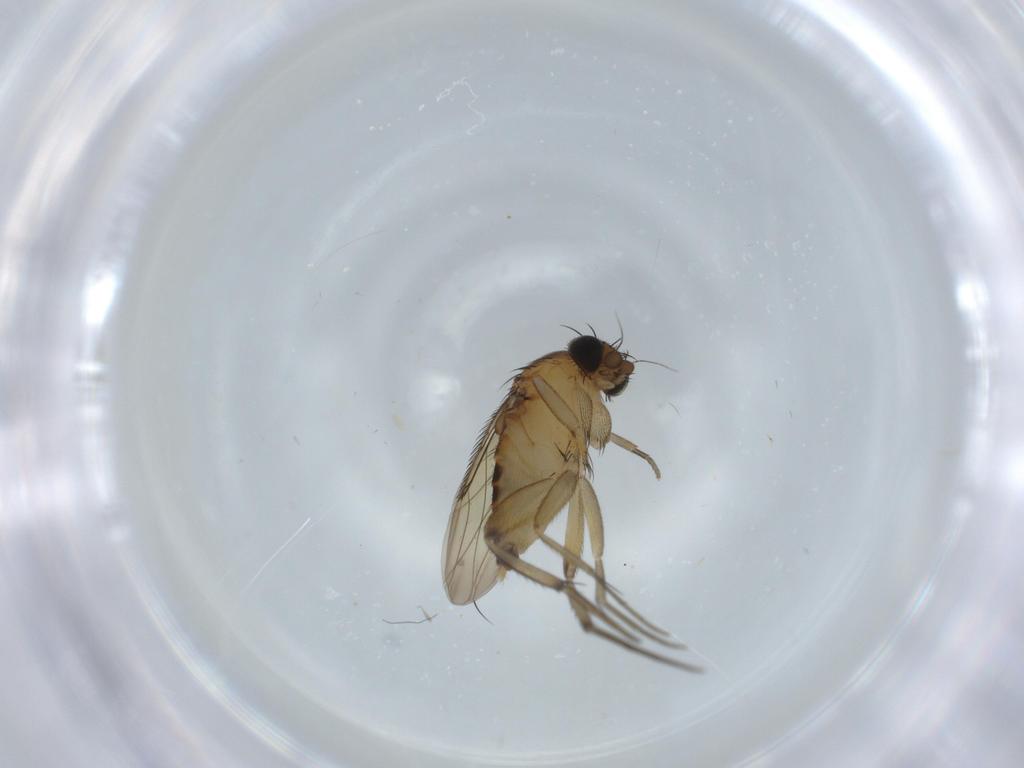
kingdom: Animalia
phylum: Arthropoda
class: Insecta
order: Diptera
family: Phoridae
